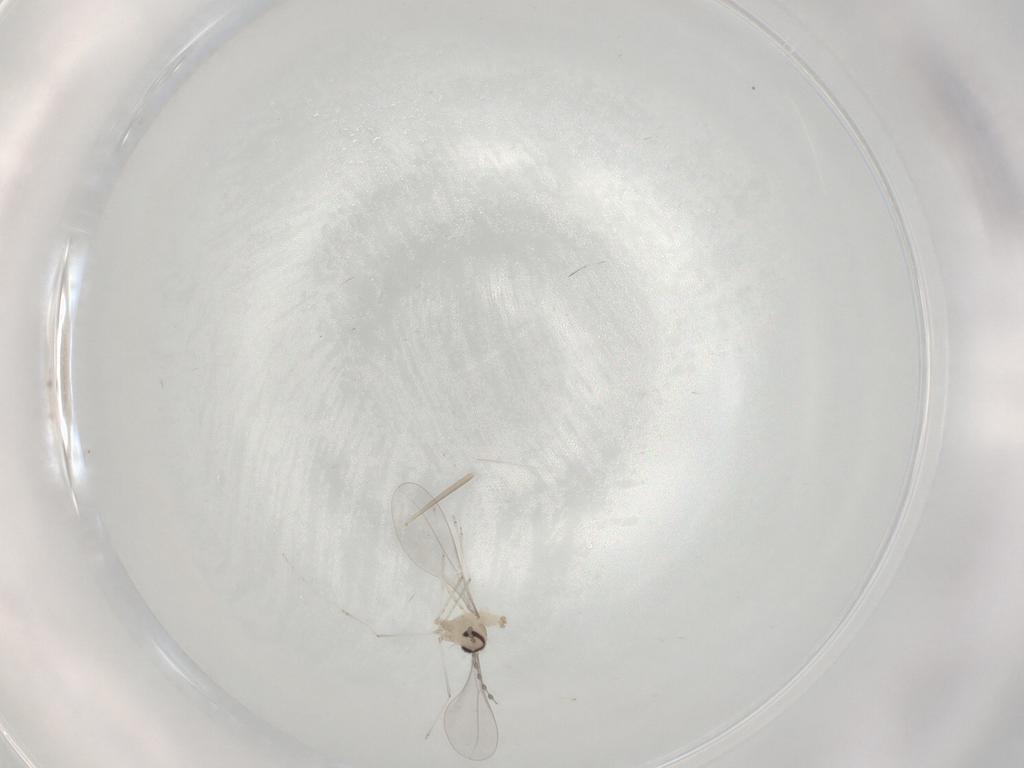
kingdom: Animalia
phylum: Arthropoda
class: Insecta
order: Diptera
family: Cecidomyiidae
